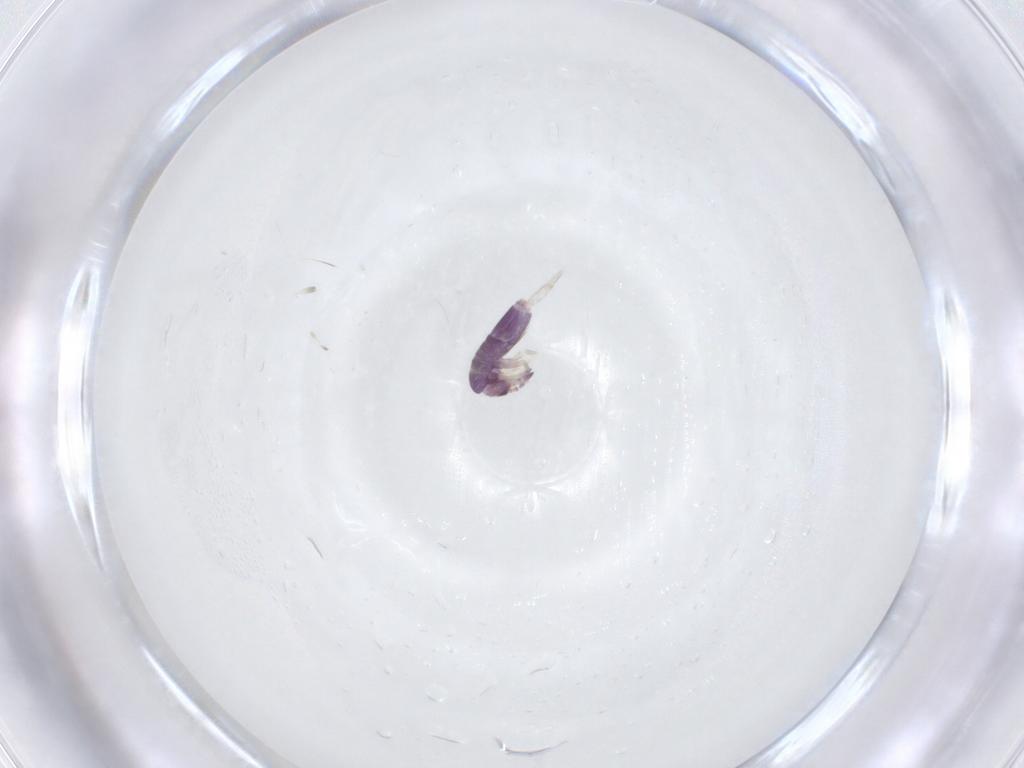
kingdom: Animalia
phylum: Arthropoda
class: Collembola
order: Entomobryomorpha
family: Entomobryidae
